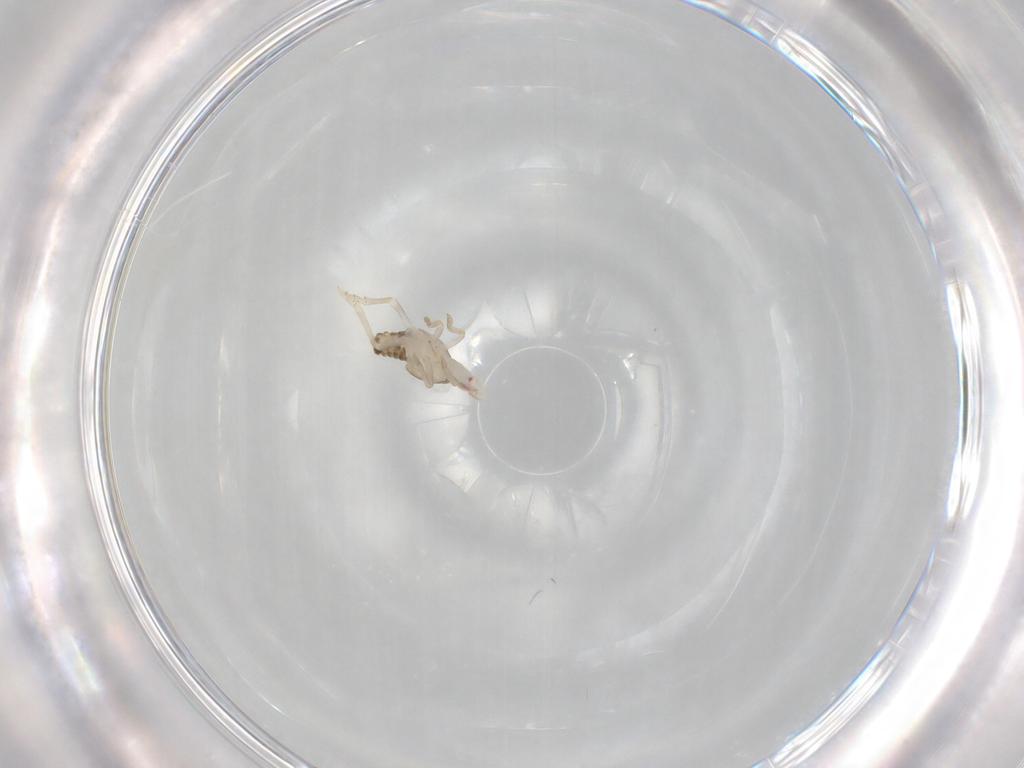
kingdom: Animalia
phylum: Arthropoda
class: Insecta
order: Hemiptera
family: Tropiduchidae
